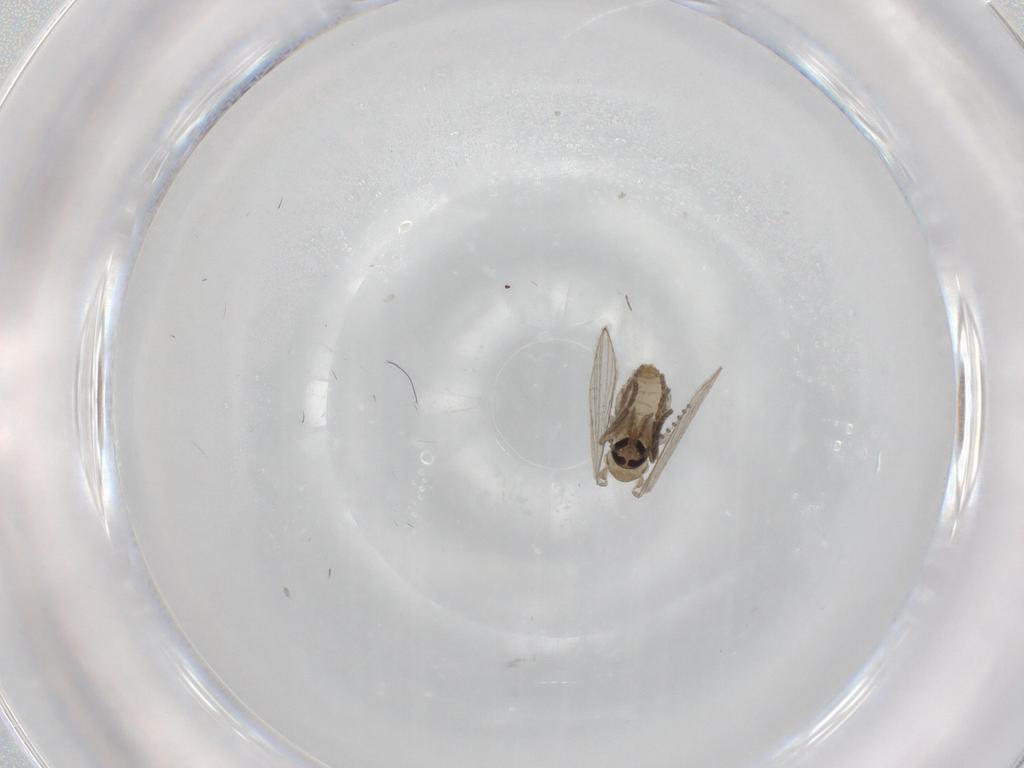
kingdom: Animalia
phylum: Arthropoda
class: Insecta
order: Diptera
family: Psychodidae
